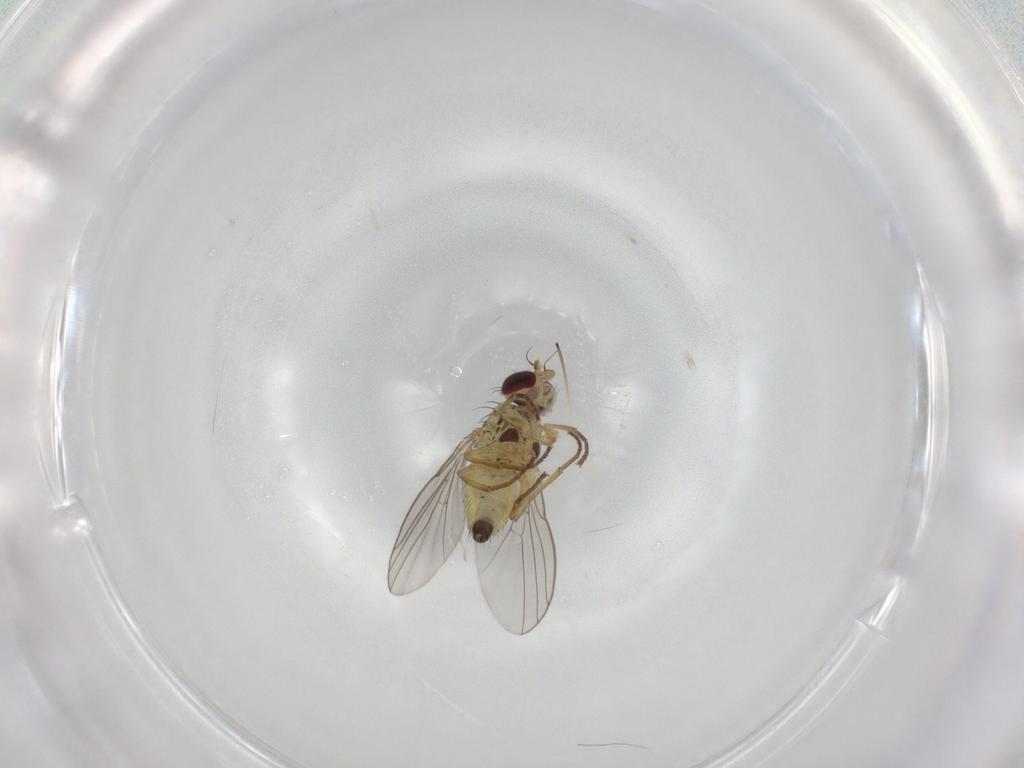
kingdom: Animalia
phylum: Arthropoda
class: Insecta
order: Diptera
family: Agromyzidae
